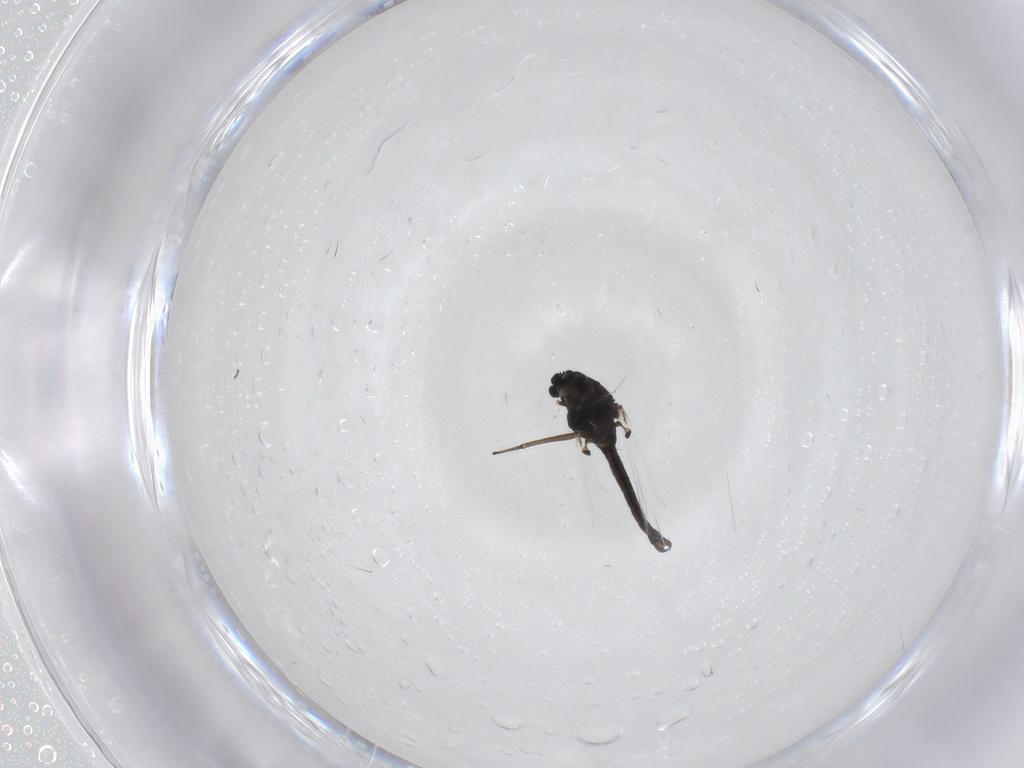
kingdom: Animalia
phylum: Arthropoda
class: Insecta
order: Diptera
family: Chironomidae
